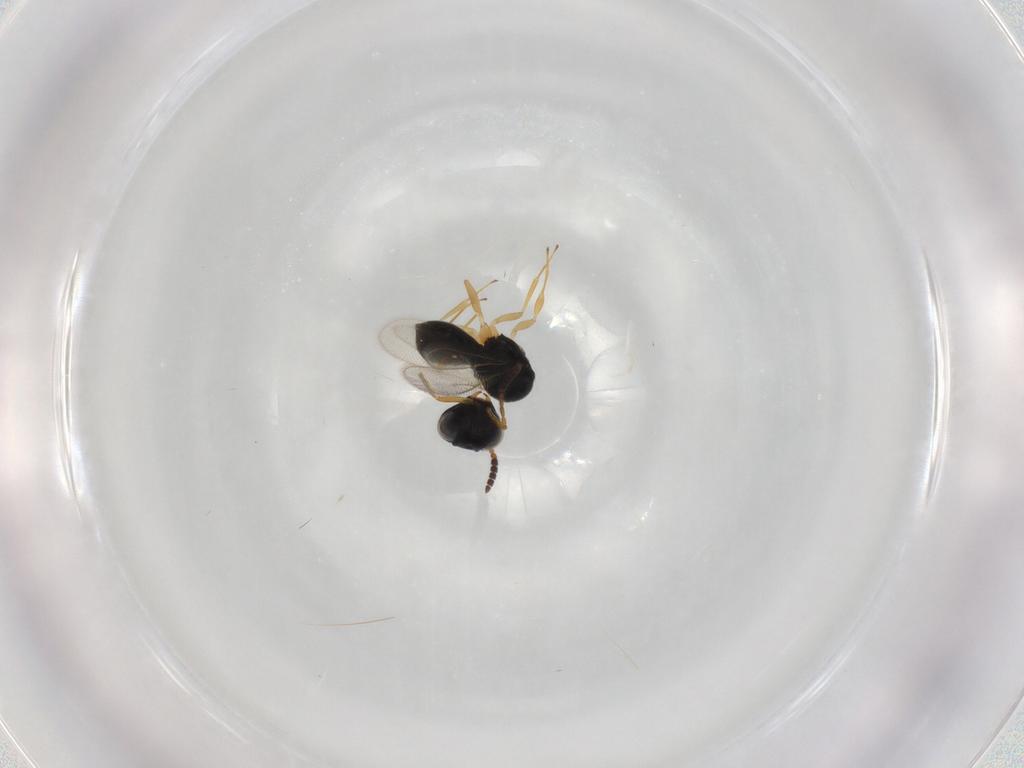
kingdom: Animalia
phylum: Arthropoda
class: Insecta
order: Hymenoptera
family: Scelionidae
